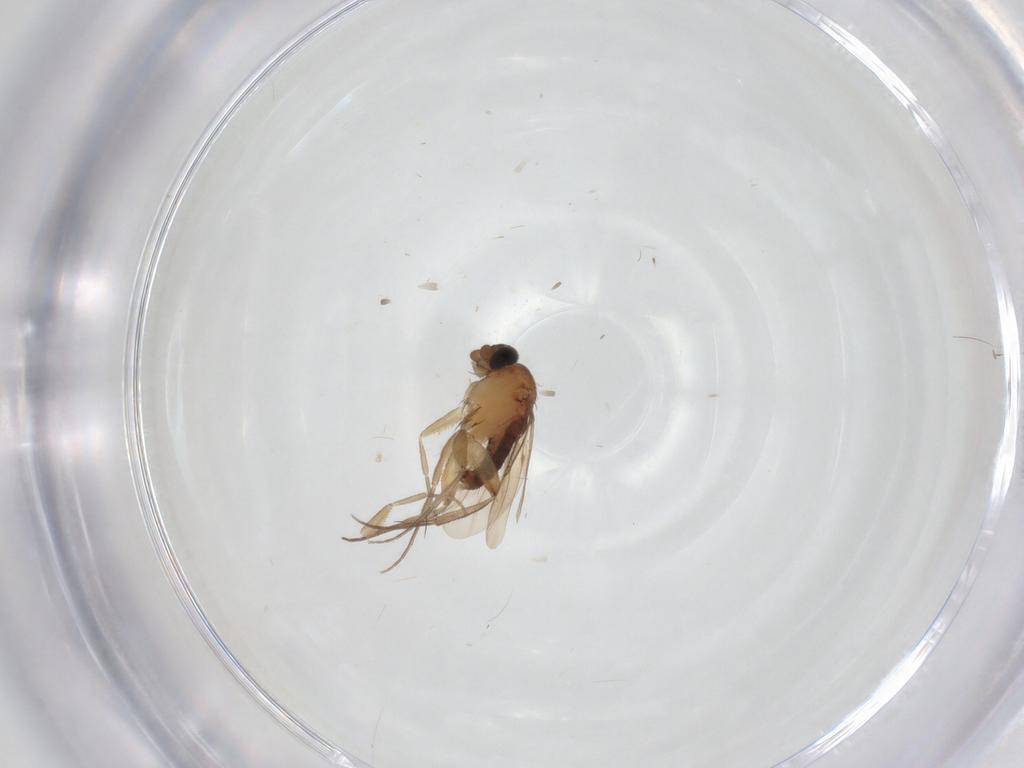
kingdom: Animalia
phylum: Arthropoda
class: Insecta
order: Diptera
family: Phoridae
